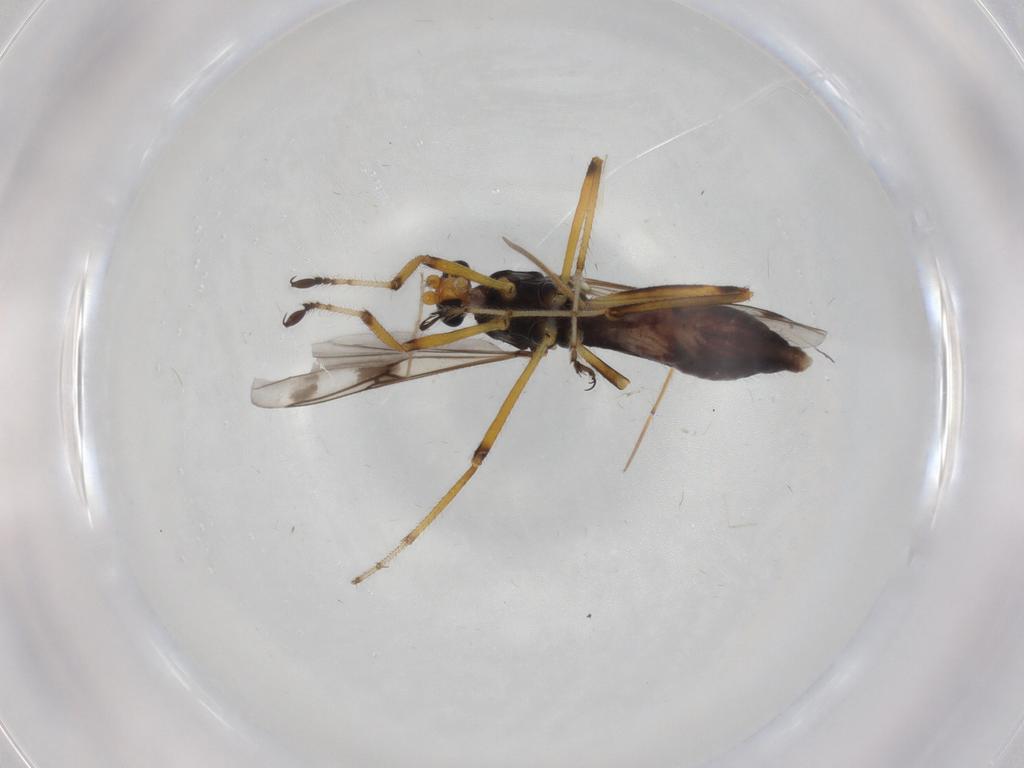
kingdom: Animalia
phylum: Arthropoda
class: Insecta
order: Diptera
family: Chironomidae
